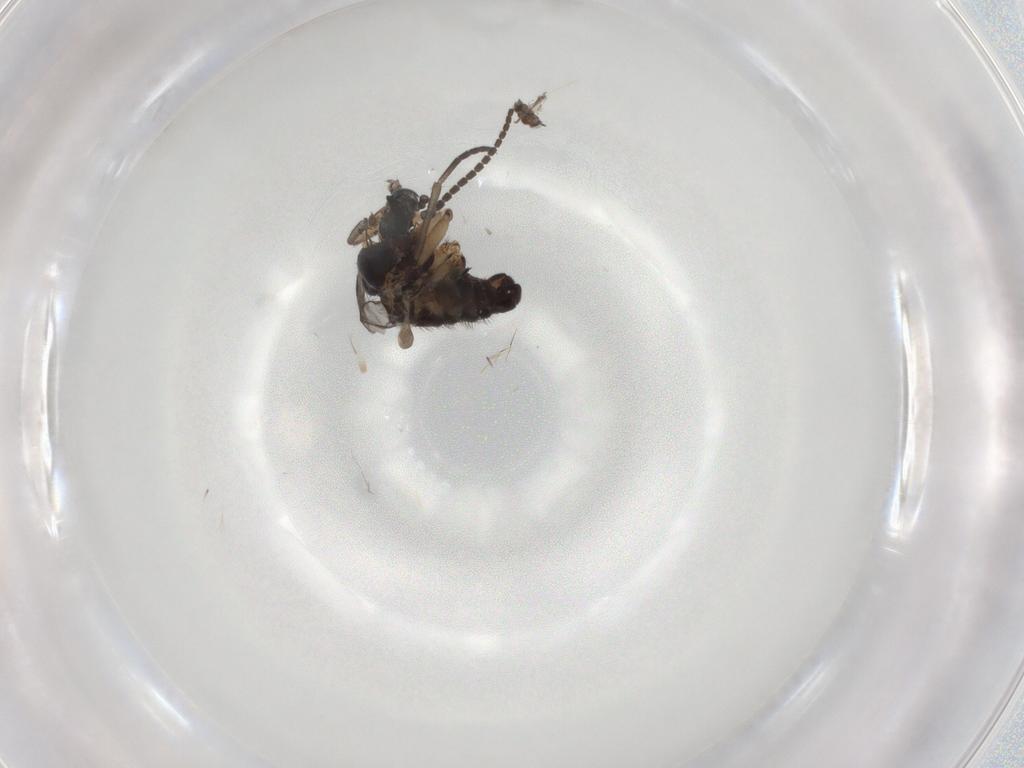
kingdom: Animalia
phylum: Arthropoda
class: Insecta
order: Diptera
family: Sciaridae
